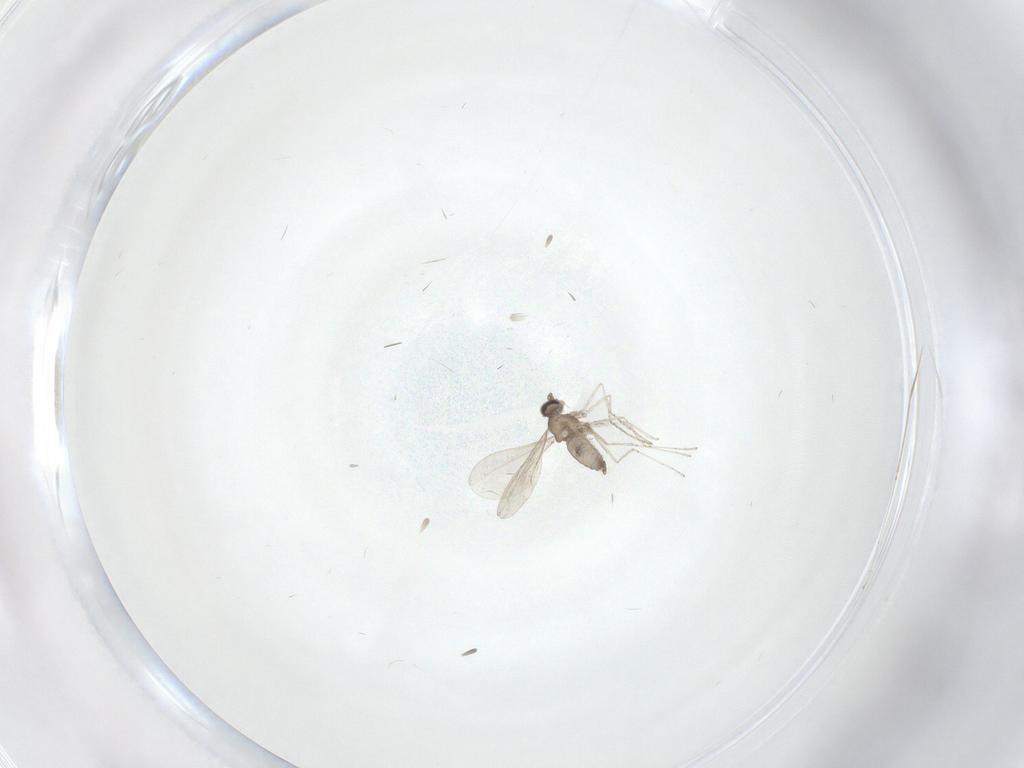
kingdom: Animalia
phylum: Arthropoda
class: Insecta
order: Diptera
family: Cecidomyiidae
